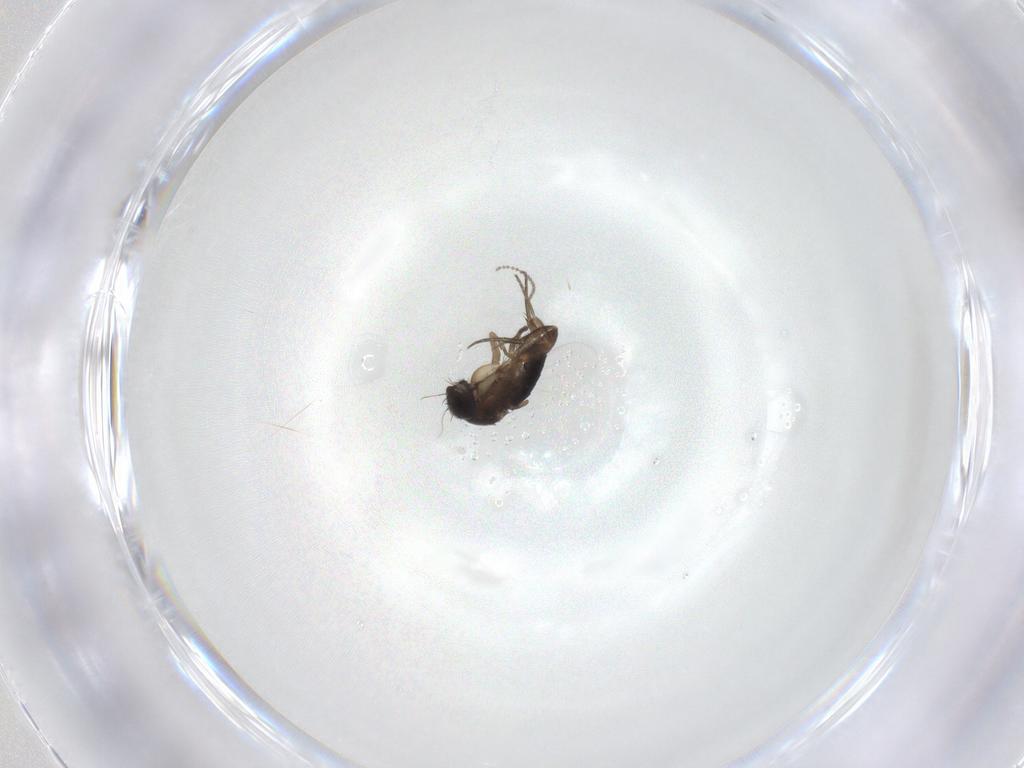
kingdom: Animalia
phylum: Arthropoda
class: Insecta
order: Diptera
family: Phoridae
